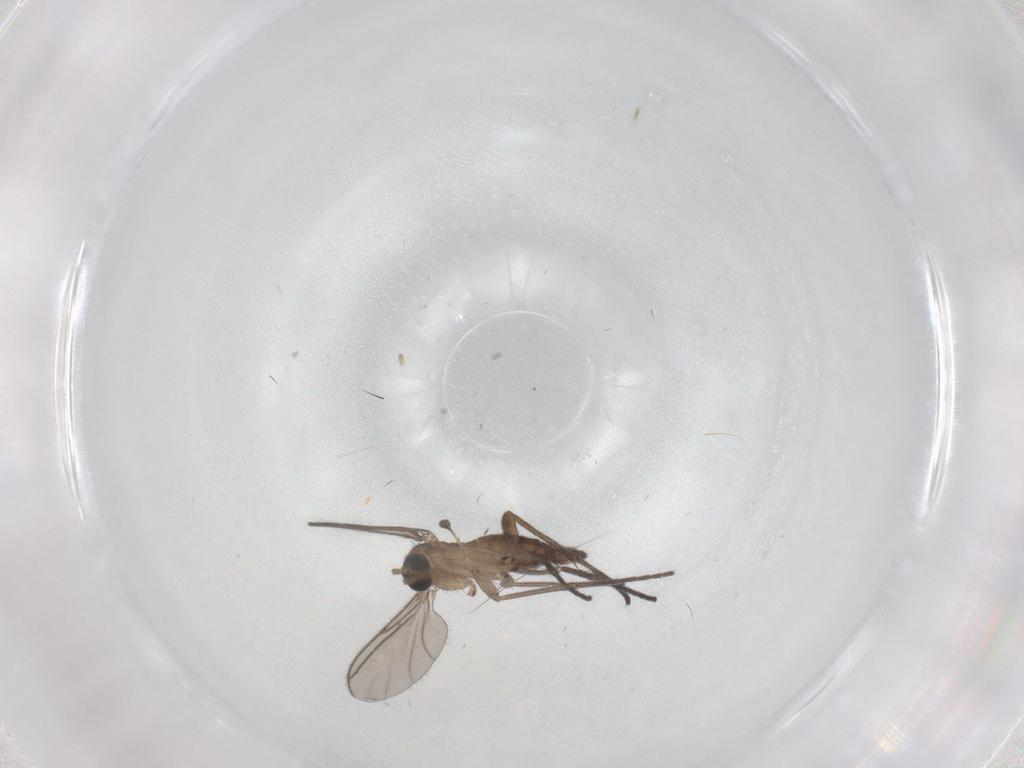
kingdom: Animalia
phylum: Arthropoda
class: Insecta
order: Diptera
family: Sciaridae
